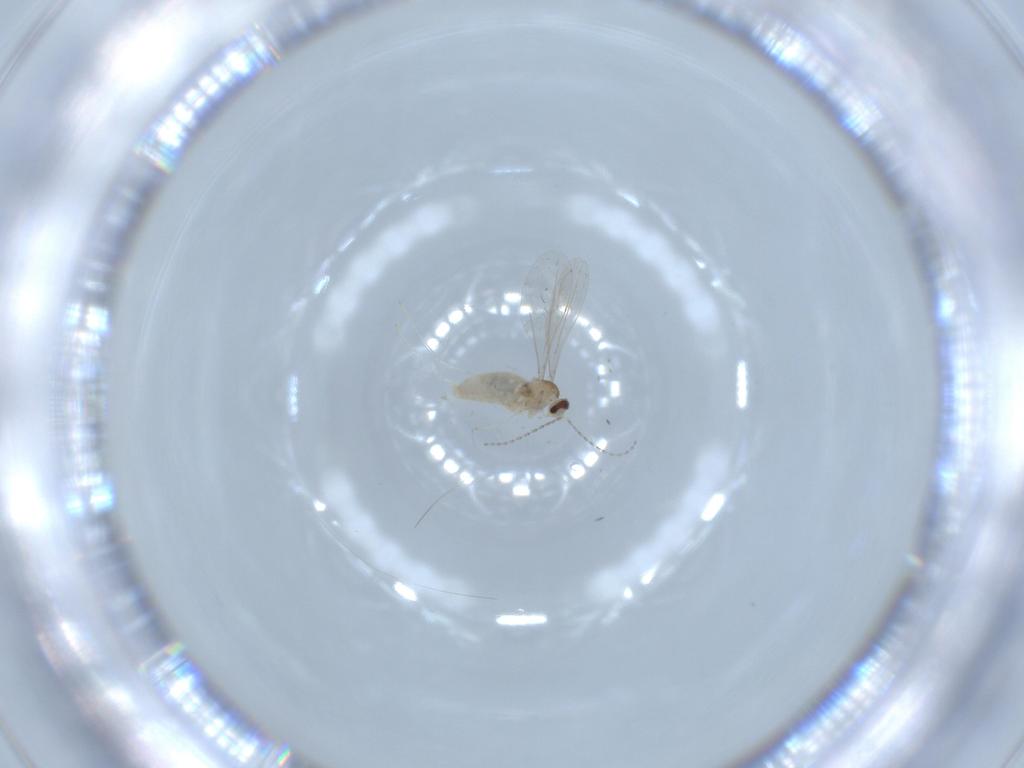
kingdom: Animalia
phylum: Arthropoda
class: Insecta
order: Diptera
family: Cecidomyiidae
